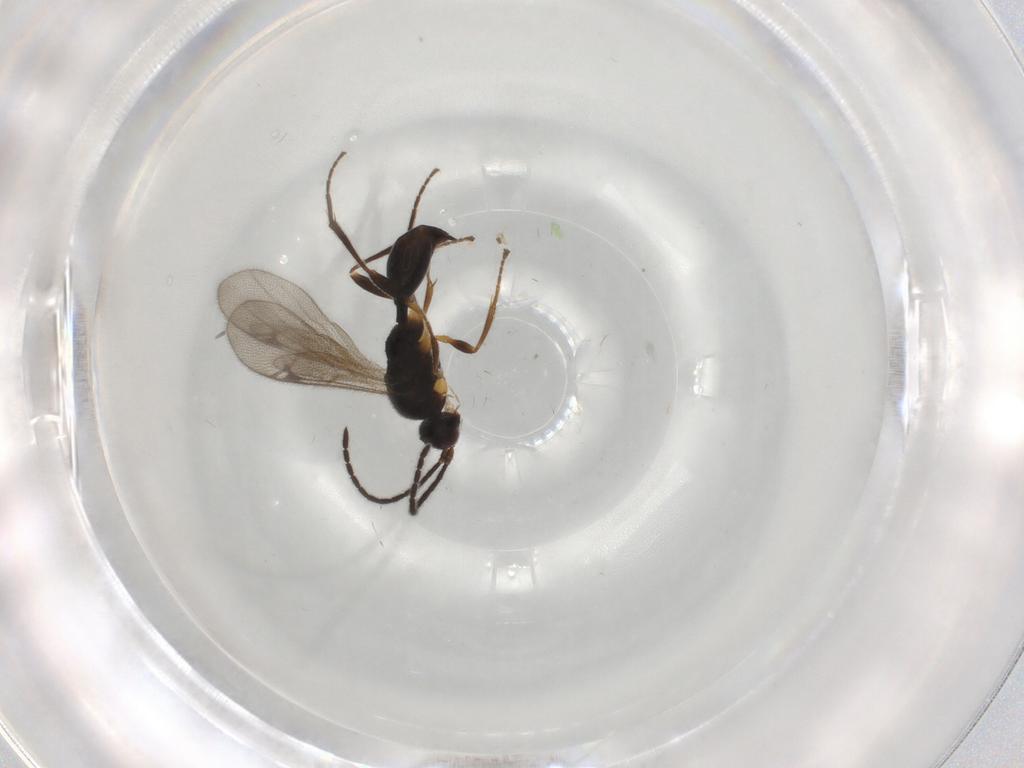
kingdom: Animalia
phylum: Arthropoda
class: Insecta
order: Hymenoptera
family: Proctotrupidae
